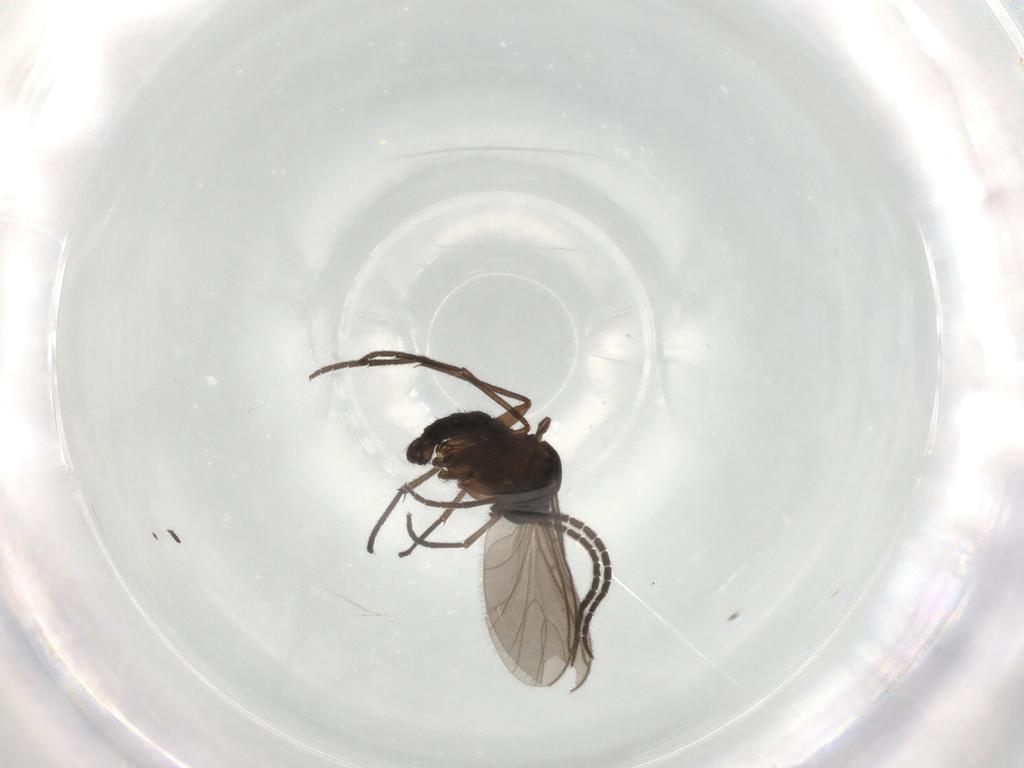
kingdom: Animalia
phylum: Arthropoda
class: Insecta
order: Diptera
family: Sciaridae
